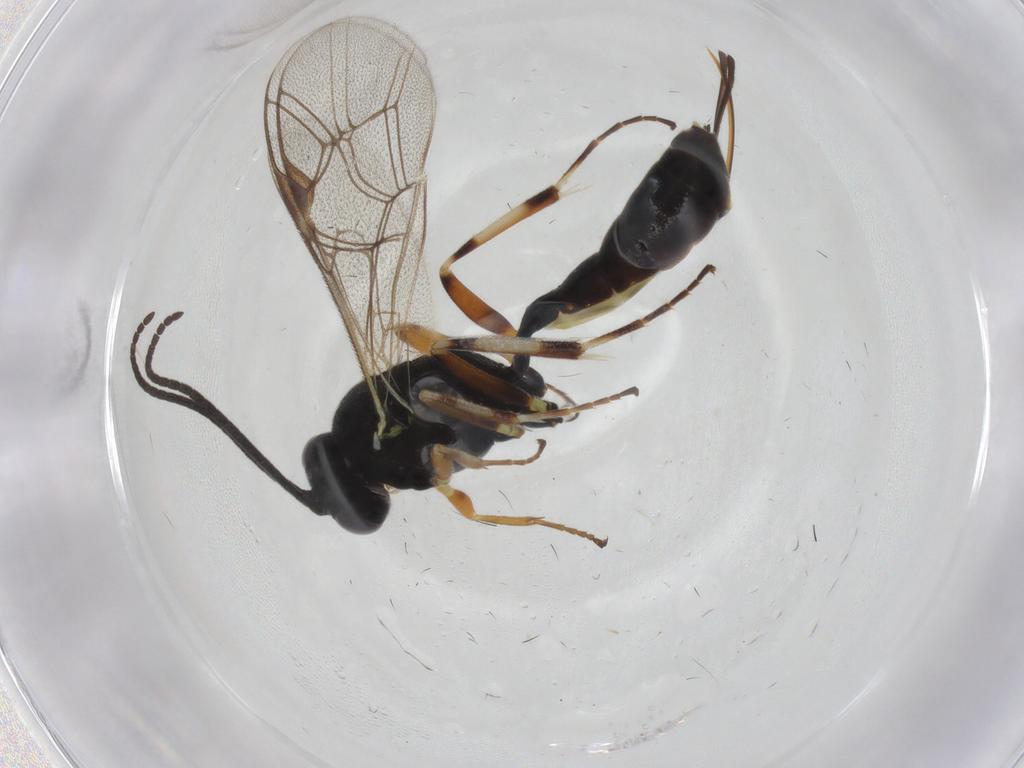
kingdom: Animalia
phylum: Arthropoda
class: Insecta
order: Hymenoptera
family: Ichneumonidae
